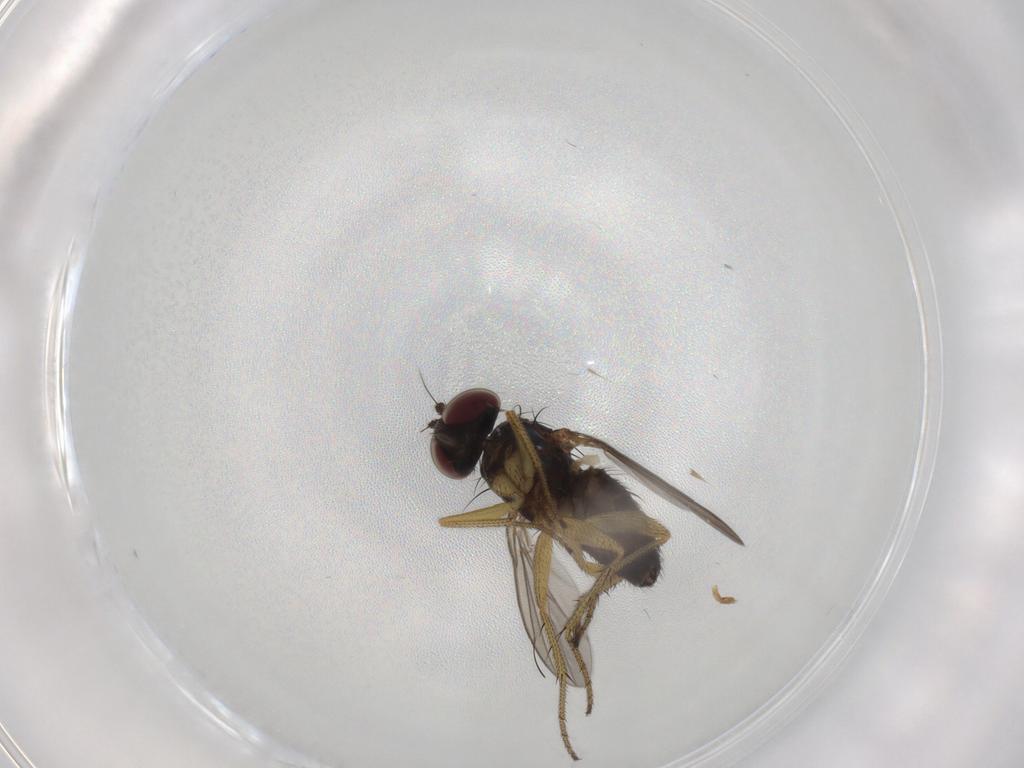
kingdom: Animalia
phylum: Arthropoda
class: Insecta
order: Diptera
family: Dolichopodidae
